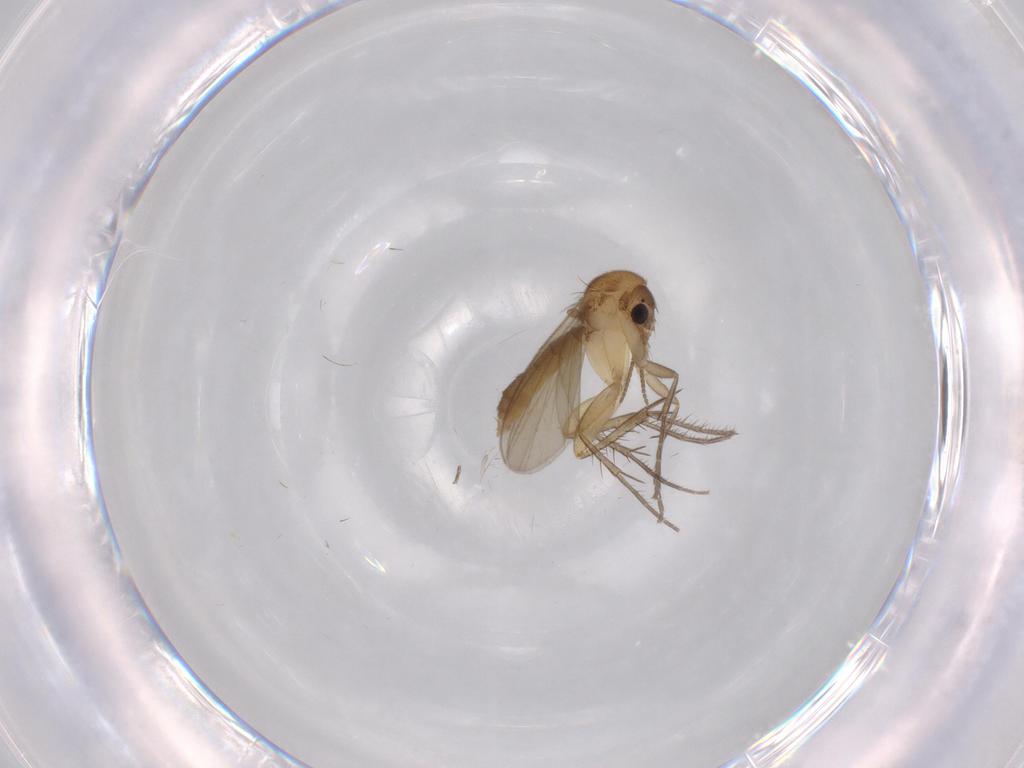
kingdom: Animalia
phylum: Arthropoda
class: Insecta
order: Diptera
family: Mycetophilidae
